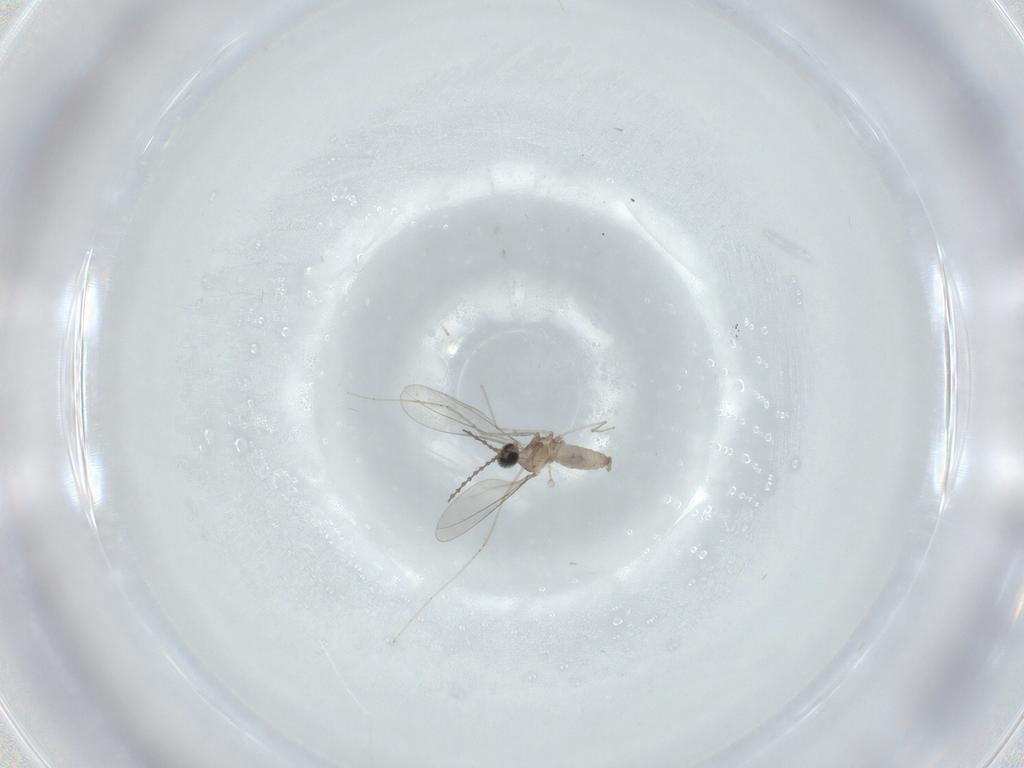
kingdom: Animalia
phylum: Arthropoda
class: Insecta
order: Diptera
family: Cecidomyiidae
